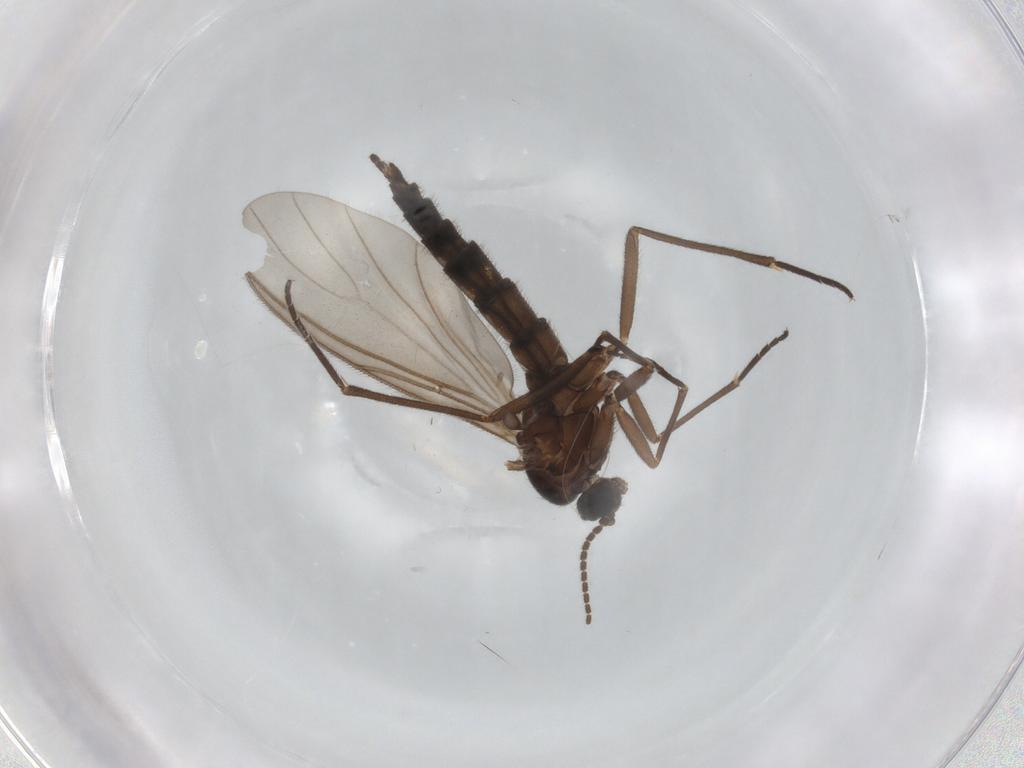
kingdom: Animalia
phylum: Arthropoda
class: Insecta
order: Diptera
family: Sciaridae
